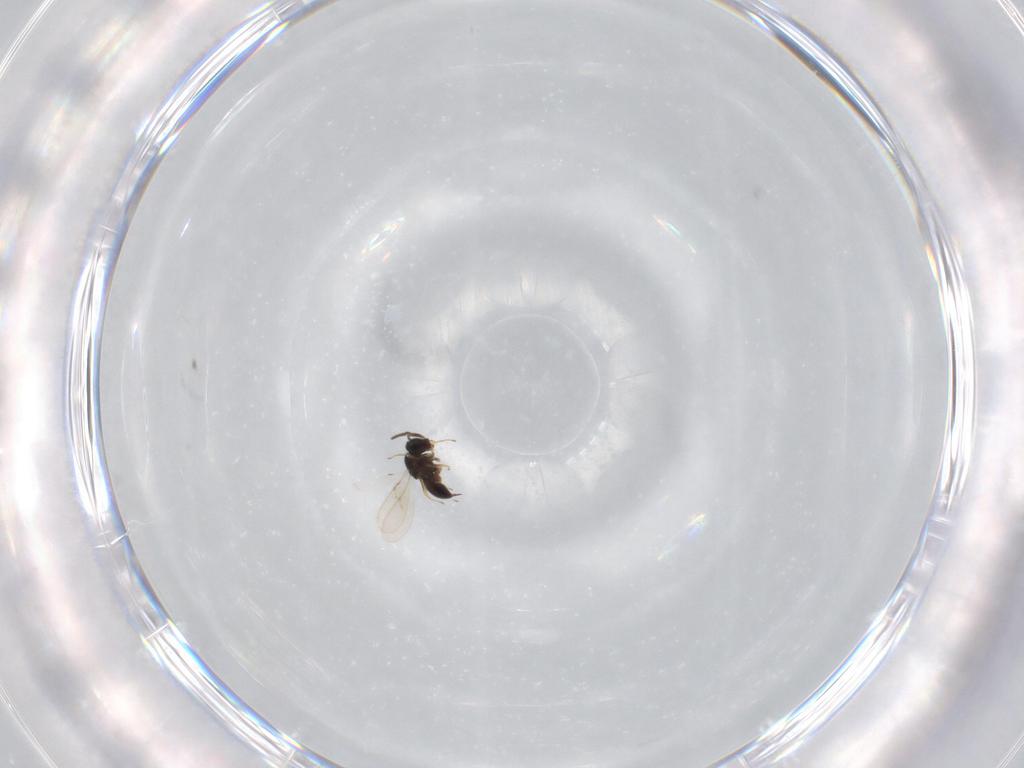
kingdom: Animalia
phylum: Arthropoda
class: Insecta
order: Hymenoptera
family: Scelionidae
